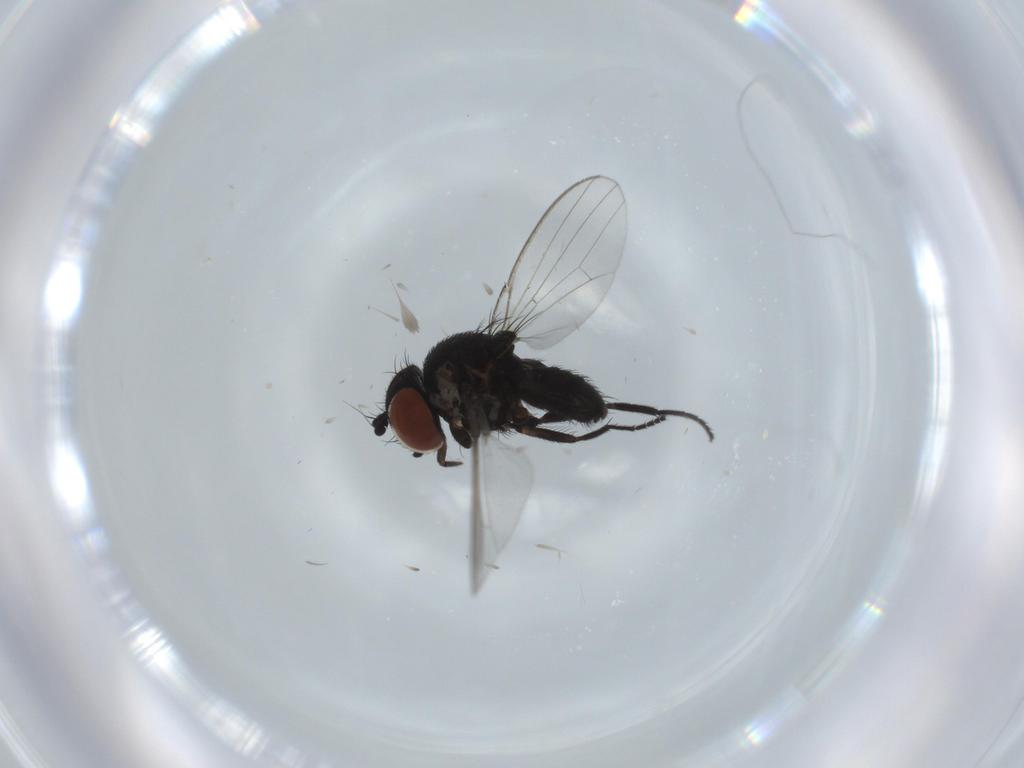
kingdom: Animalia
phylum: Arthropoda
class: Insecta
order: Diptera
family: Milichiidae
